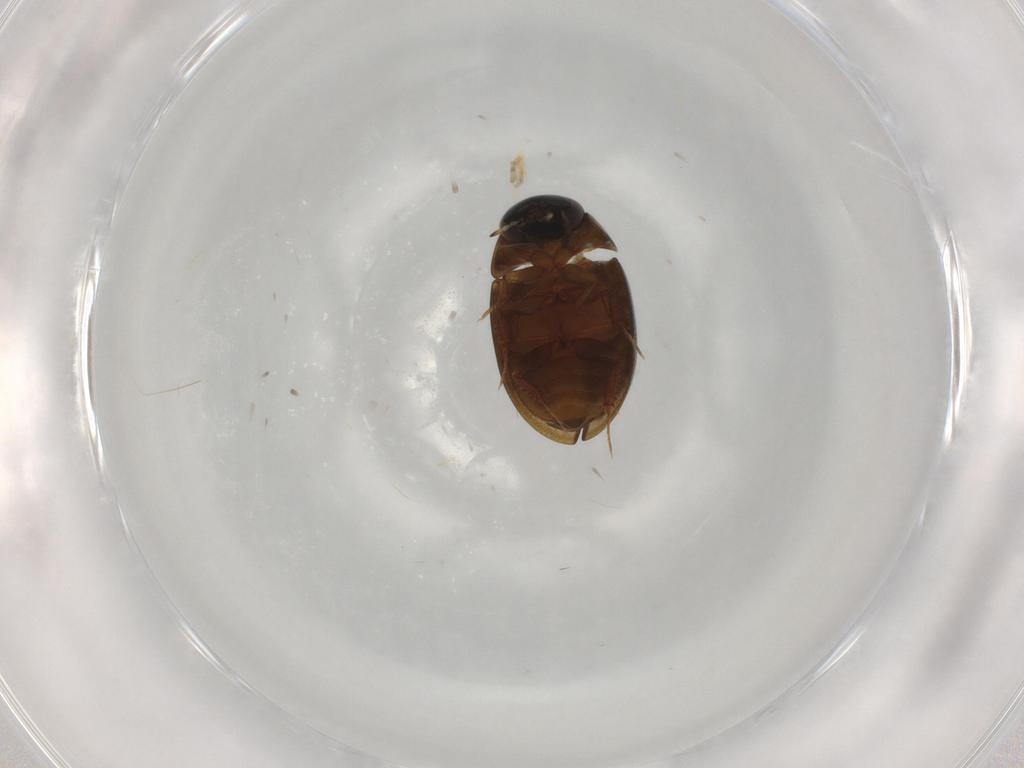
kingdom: Animalia
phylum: Arthropoda
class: Insecta
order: Coleoptera
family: Hydrophilidae
